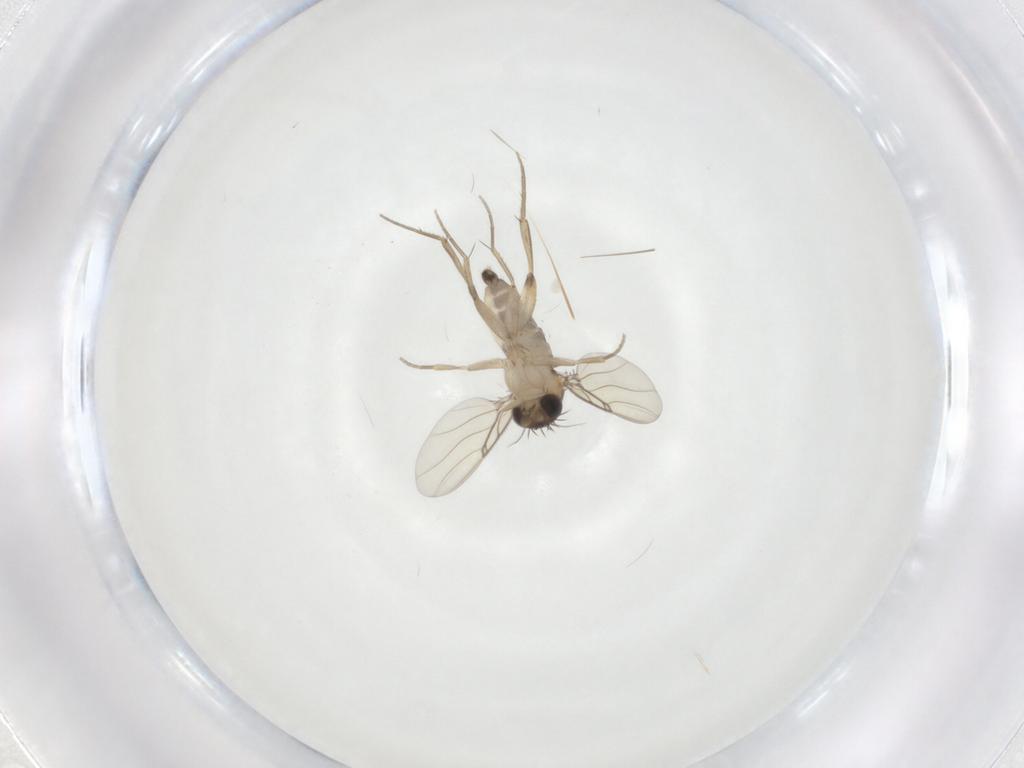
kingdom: Animalia
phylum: Arthropoda
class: Insecta
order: Diptera
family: Phoridae
